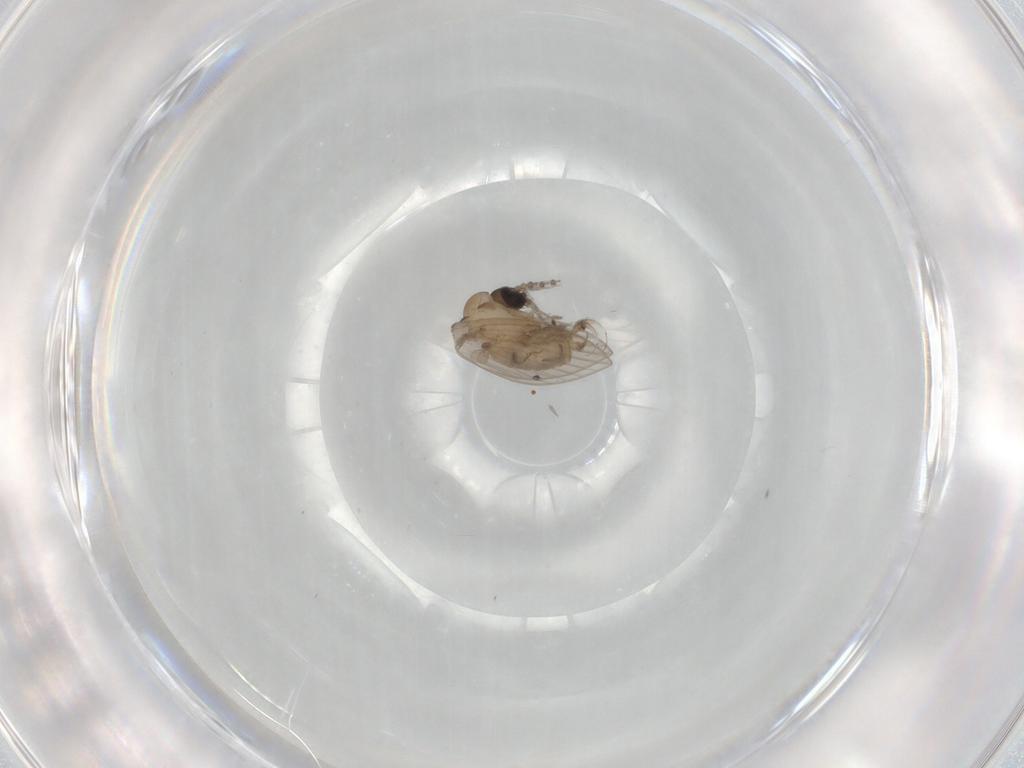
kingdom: Animalia
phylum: Arthropoda
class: Insecta
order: Diptera
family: Psychodidae
